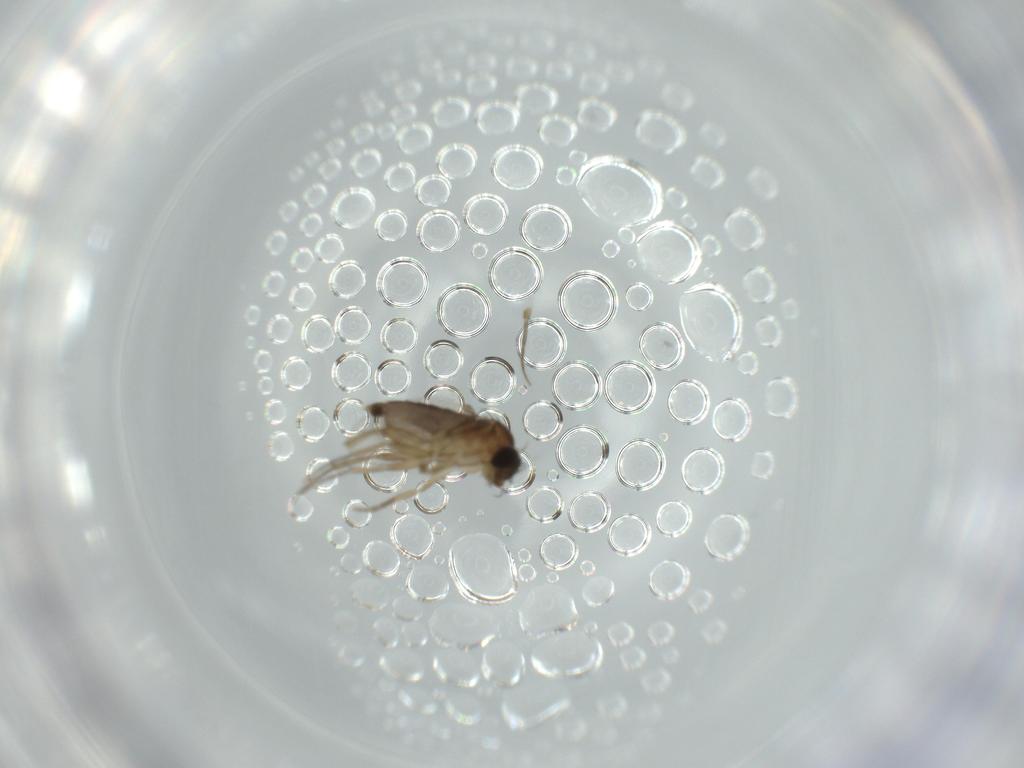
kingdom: Animalia
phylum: Arthropoda
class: Insecta
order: Diptera
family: Phoridae
